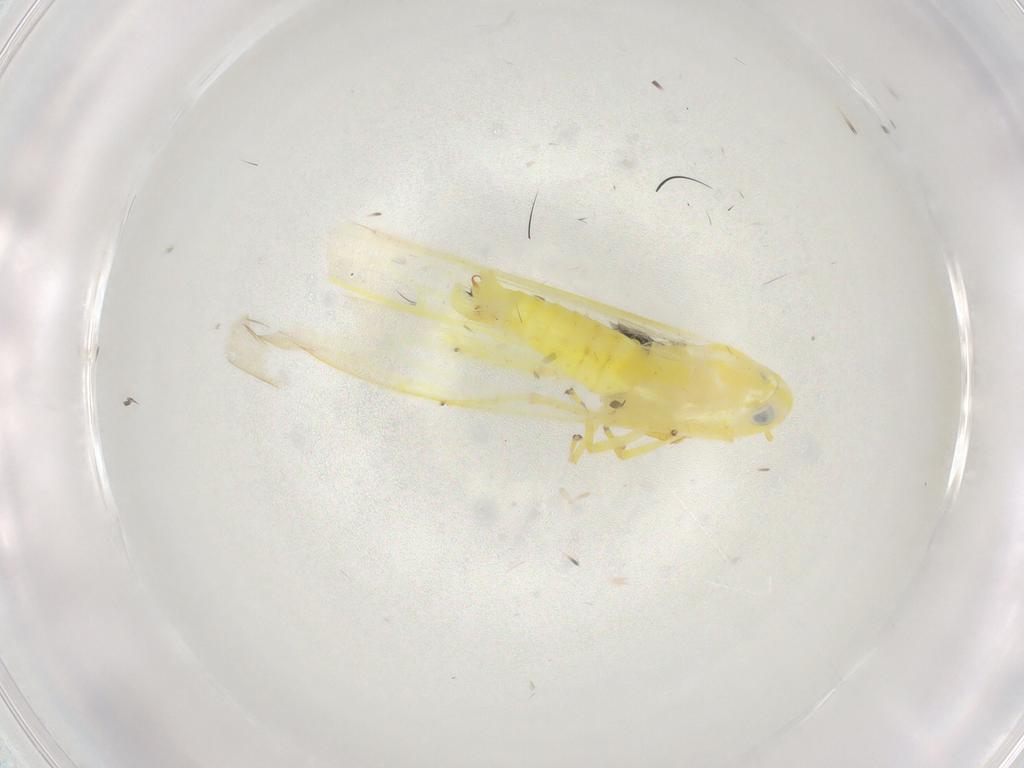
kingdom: Animalia
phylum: Arthropoda
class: Insecta
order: Hemiptera
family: Cicadellidae
